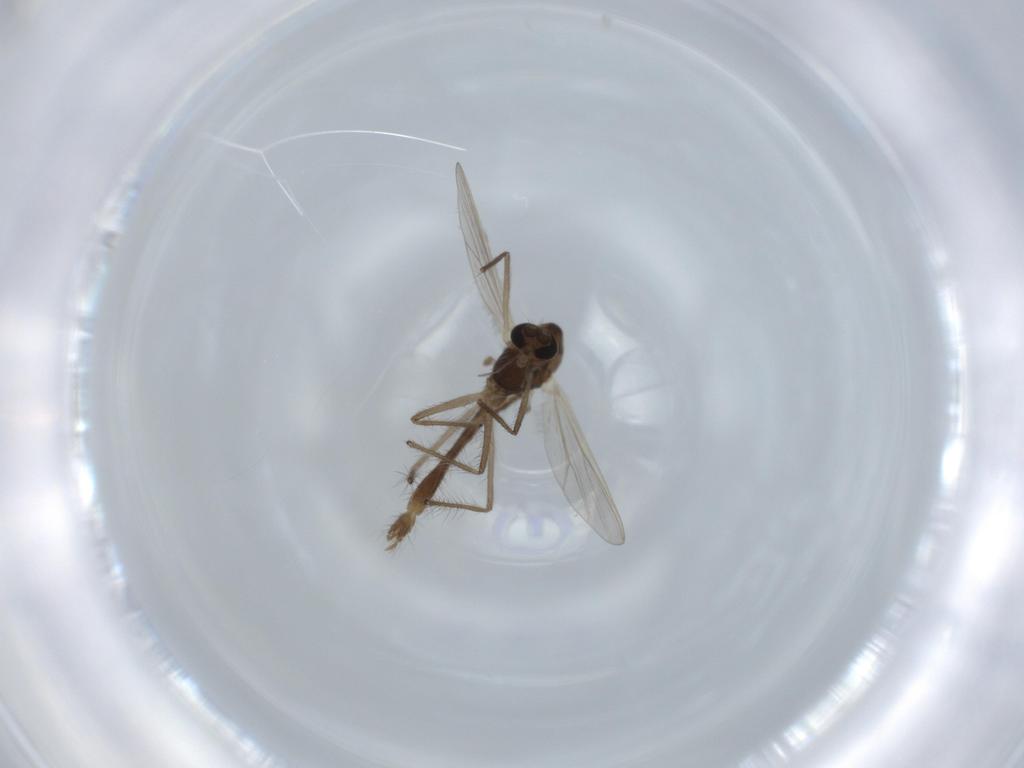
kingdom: Animalia
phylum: Arthropoda
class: Insecta
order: Diptera
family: Chironomidae
